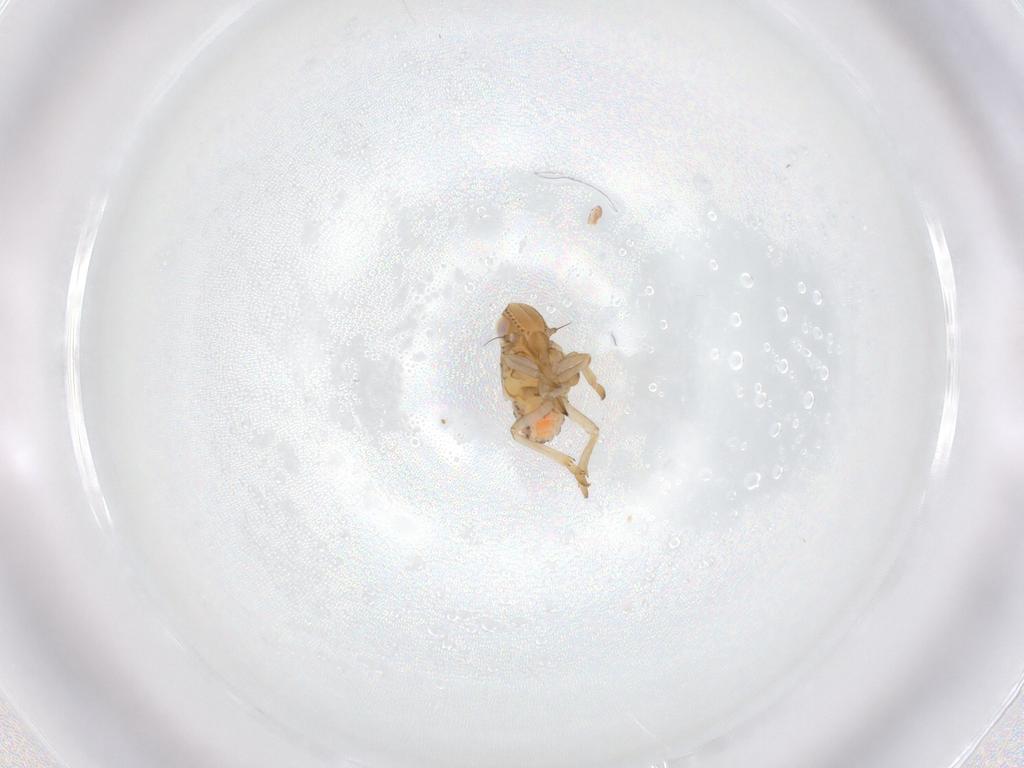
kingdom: Animalia
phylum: Arthropoda
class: Insecta
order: Hemiptera
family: Tropiduchidae
